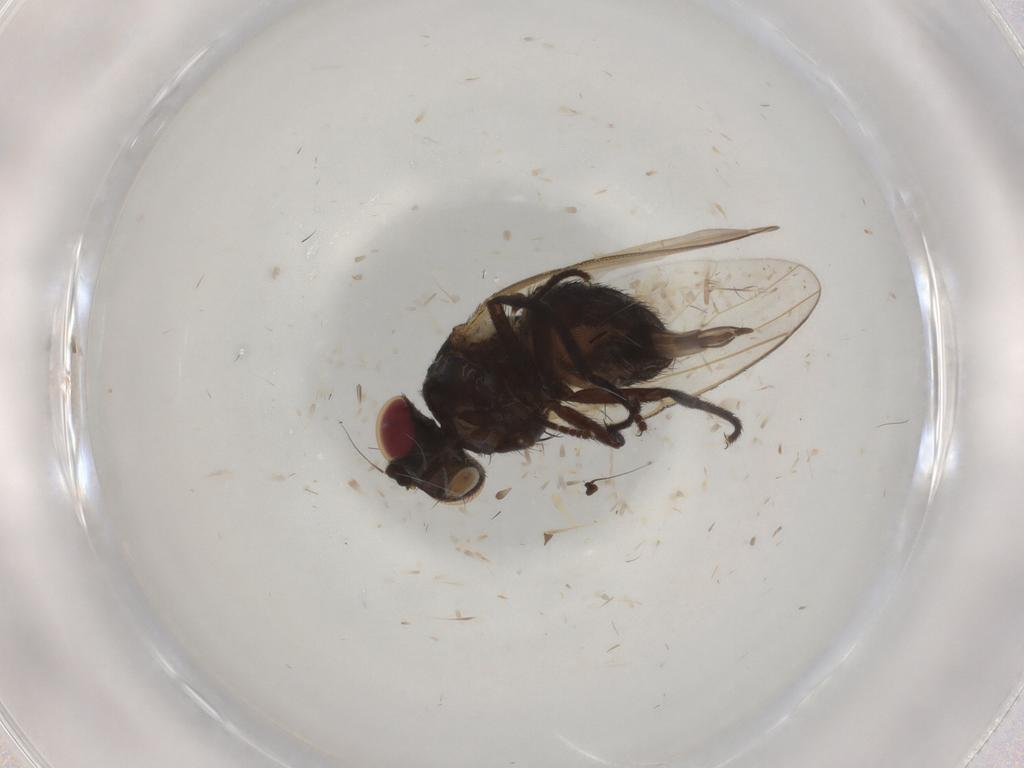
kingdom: Animalia
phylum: Arthropoda
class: Insecta
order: Diptera
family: Lonchaeidae
